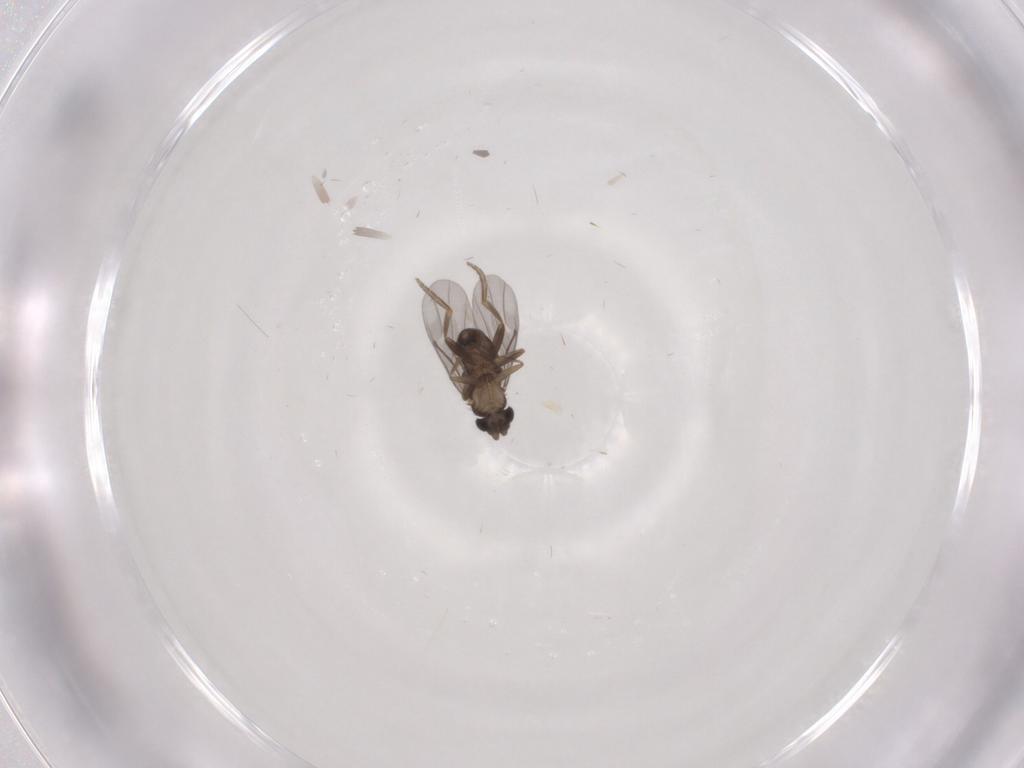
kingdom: Animalia
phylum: Arthropoda
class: Insecta
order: Diptera
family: Phoridae
